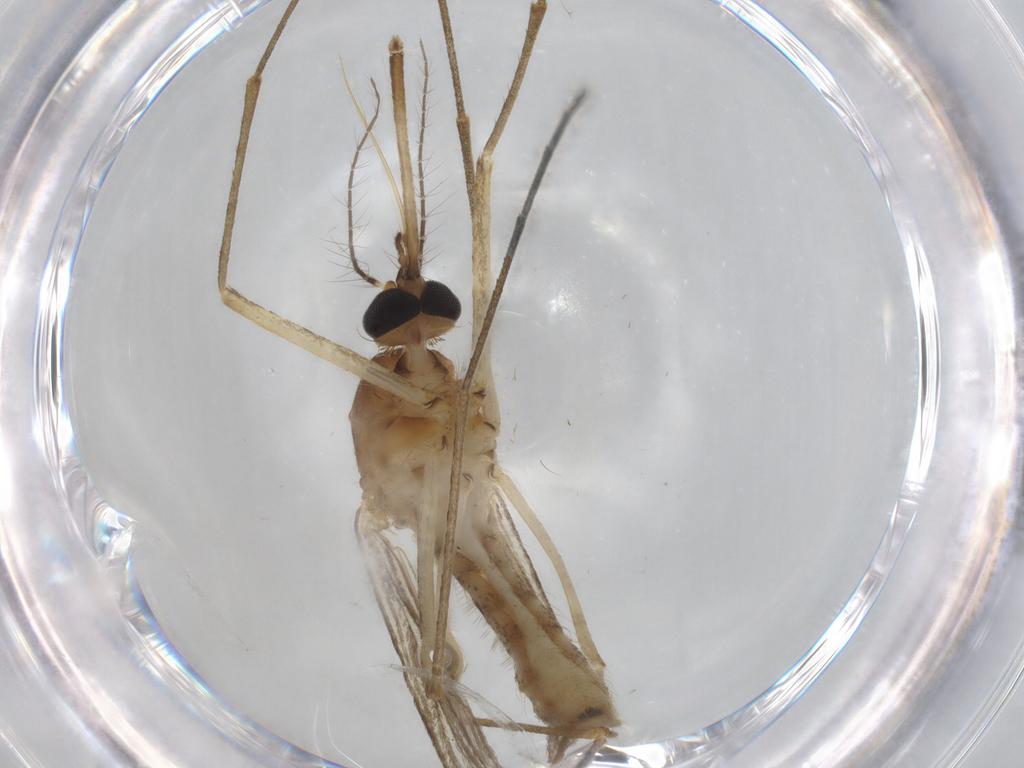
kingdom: Animalia
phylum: Arthropoda
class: Insecta
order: Diptera
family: Culicidae
